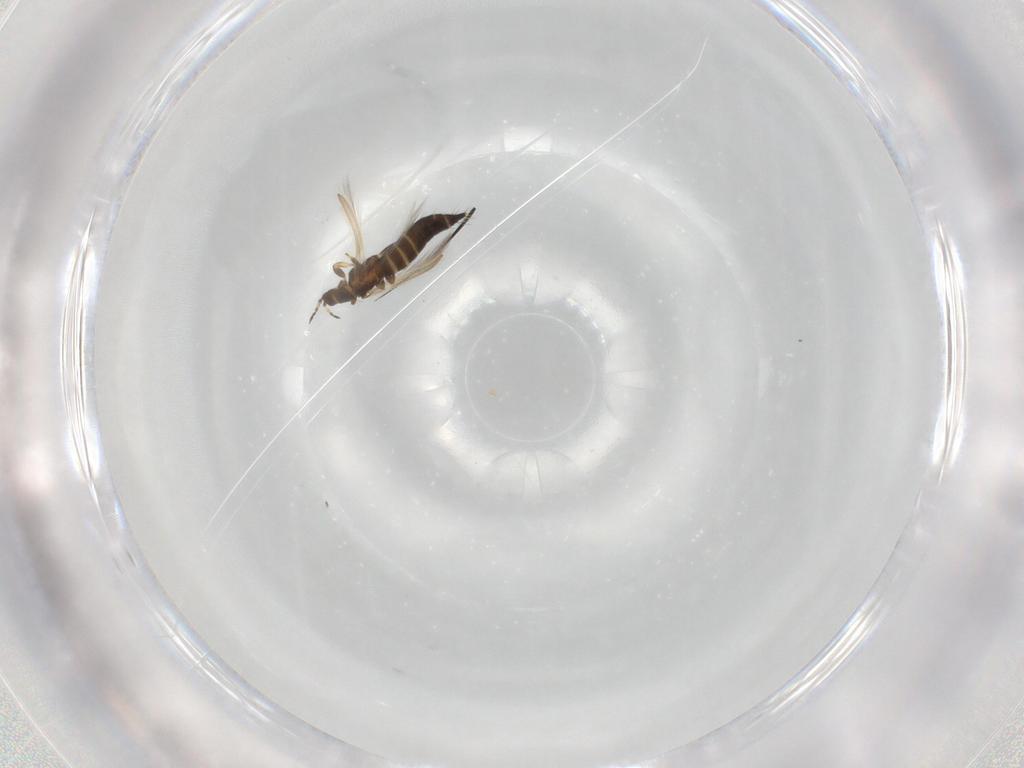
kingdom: Animalia
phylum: Arthropoda
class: Insecta
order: Thysanoptera
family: Thripidae
